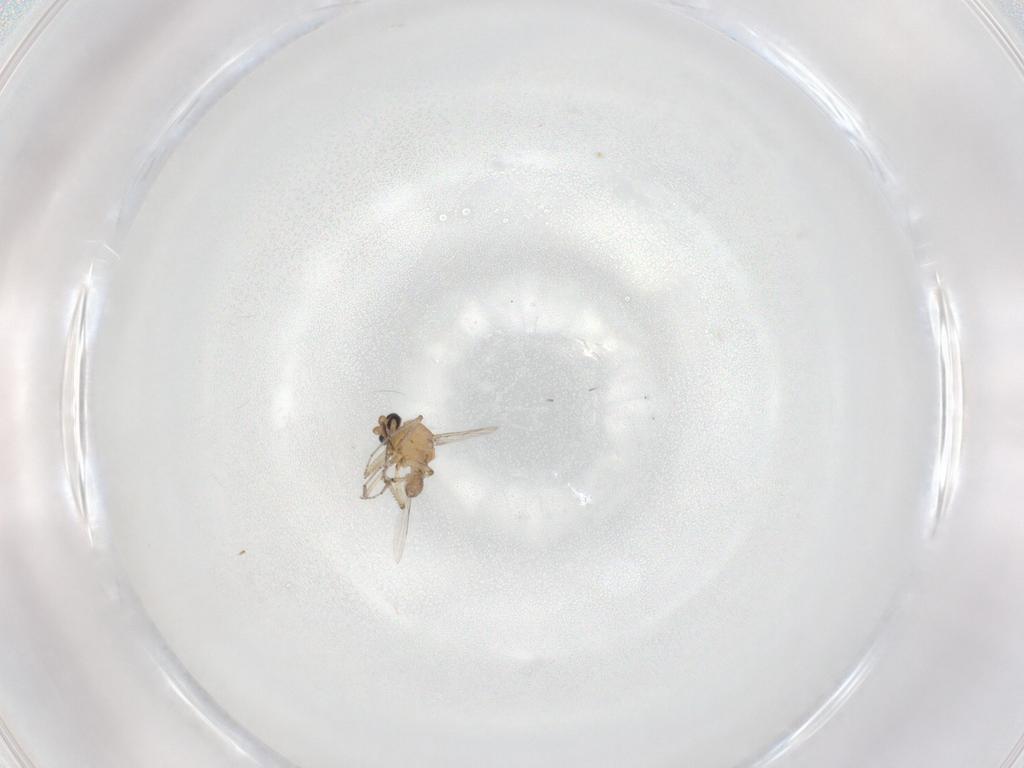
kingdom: Animalia
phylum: Arthropoda
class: Insecta
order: Diptera
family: Ceratopogonidae
